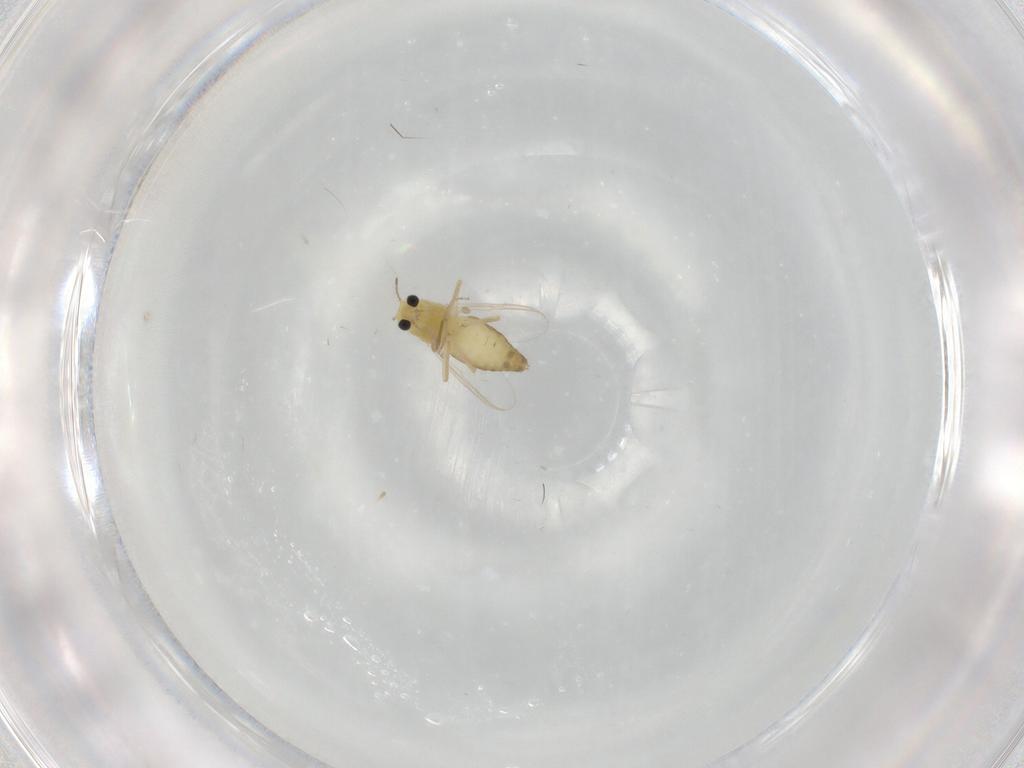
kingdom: Animalia
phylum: Arthropoda
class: Insecta
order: Diptera
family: Chironomidae
